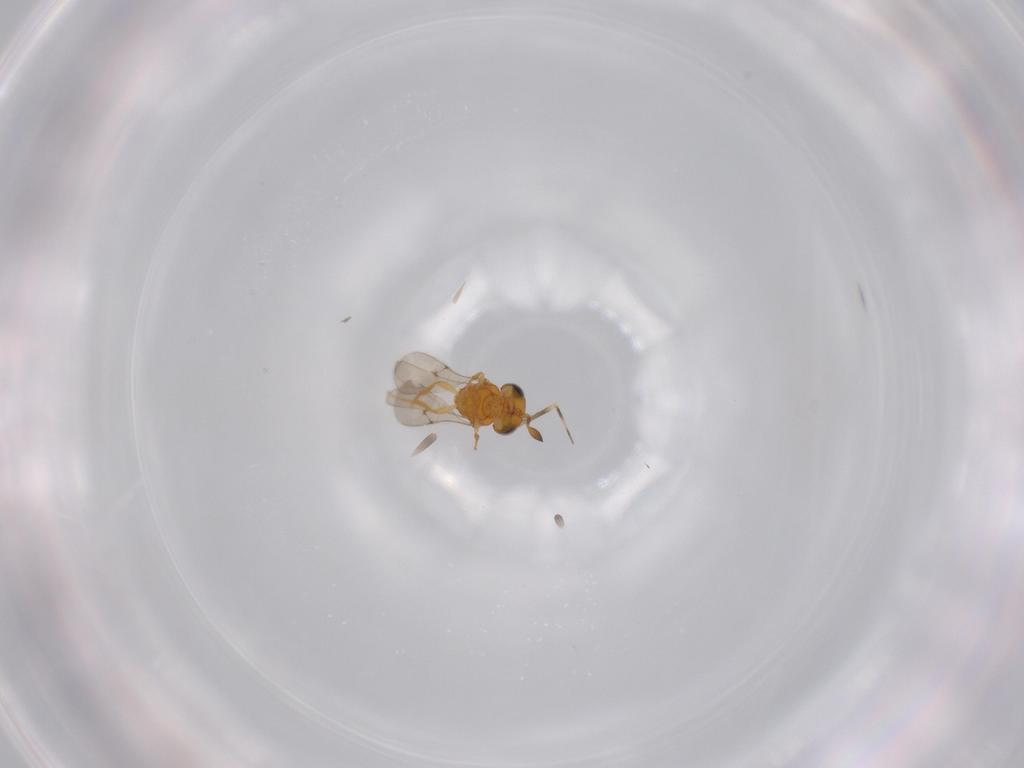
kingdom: Animalia
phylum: Arthropoda
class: Insecta
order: Hymenoptera
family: Scelionidae
